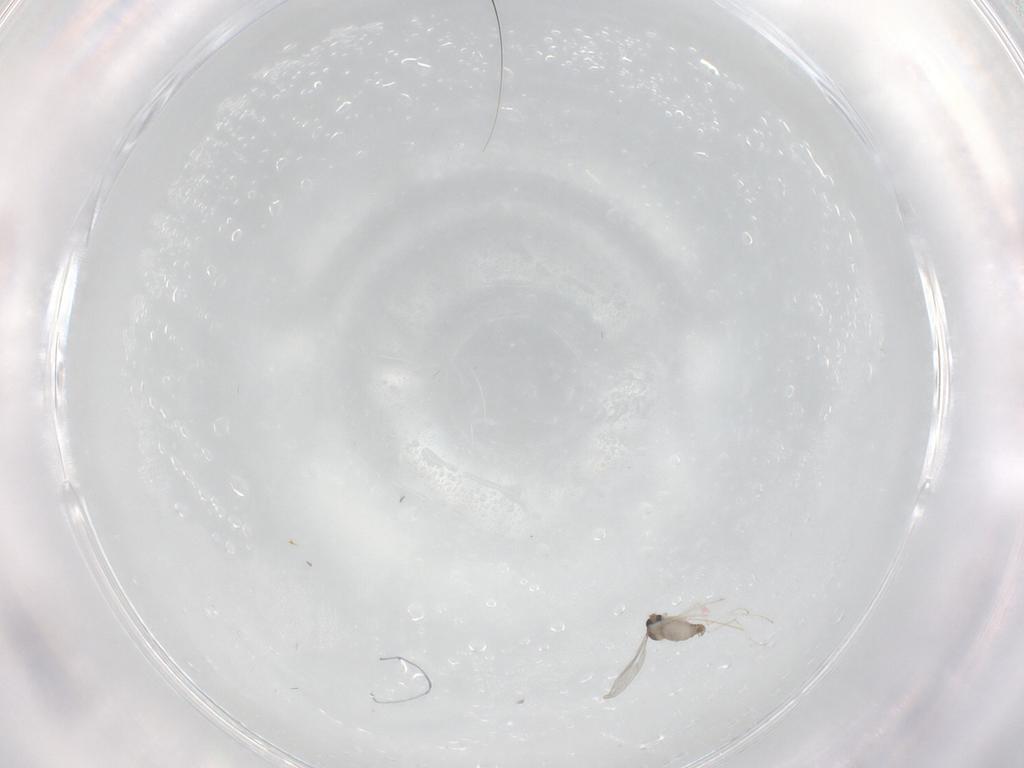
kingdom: Animalia
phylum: Arthropoda
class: Insecta
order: Diptera
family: Cecidomyiidae
